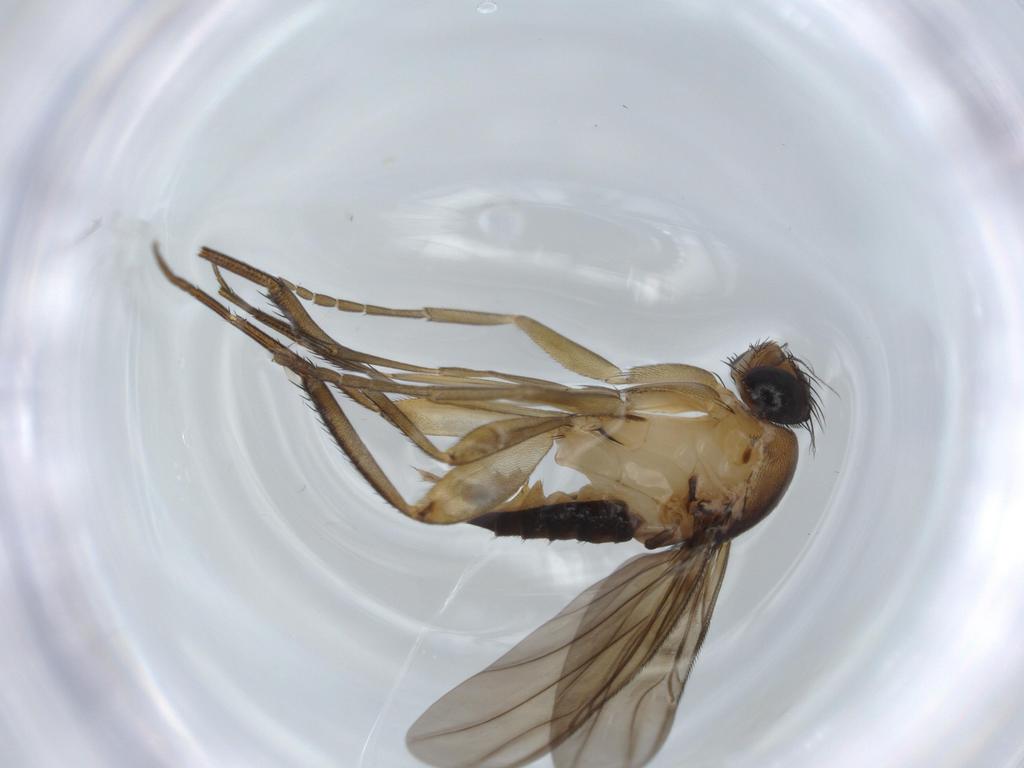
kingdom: Animalia
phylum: Arthropoda
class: Insecta
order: Diptera
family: Phoridae
